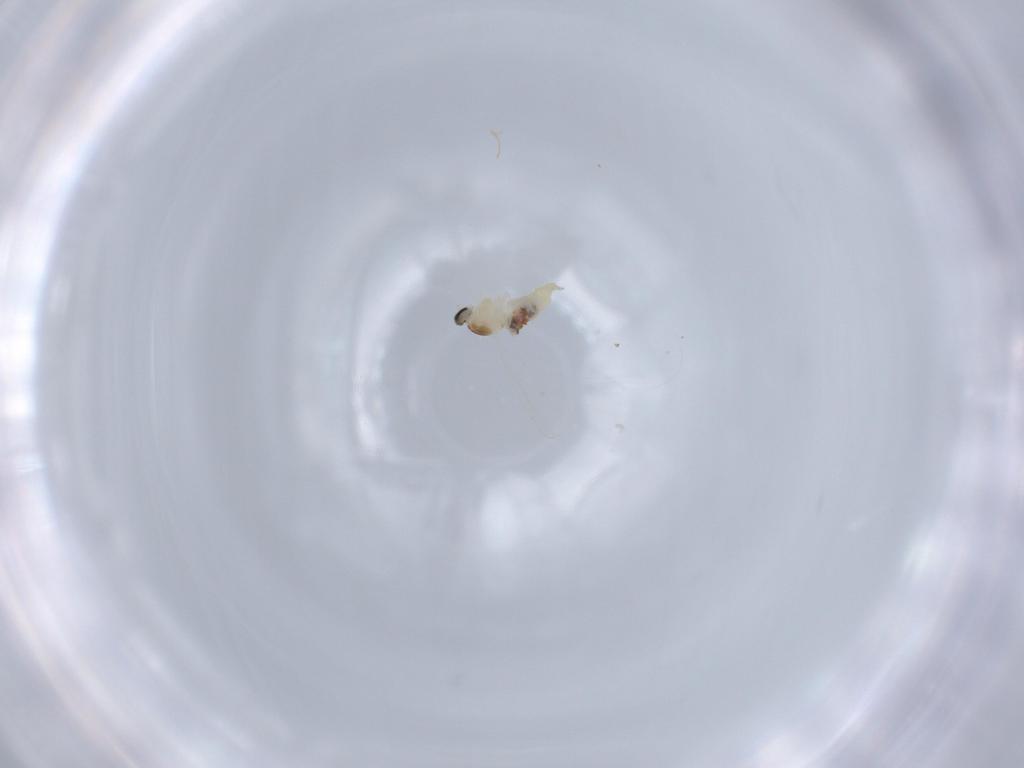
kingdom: Animalia
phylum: Arthropoda
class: Insecta
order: Diptera
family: Cecidomyiidae
